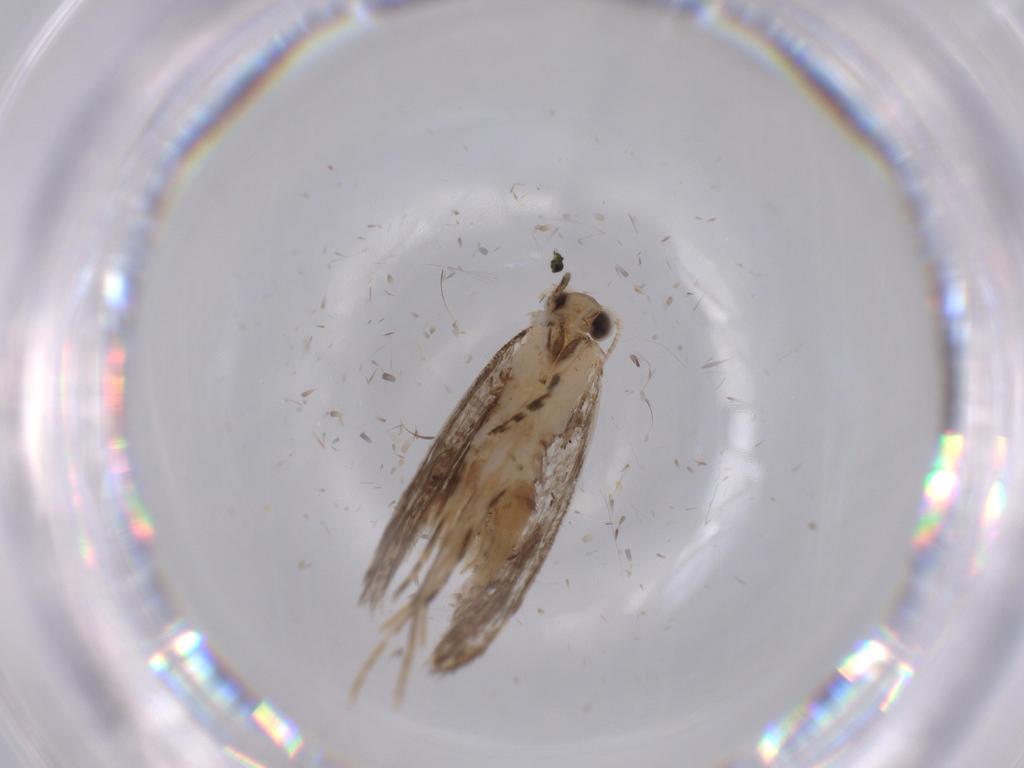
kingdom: Animalia
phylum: Arthropoda
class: Insecta
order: Lepidoptera
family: Tineidae
